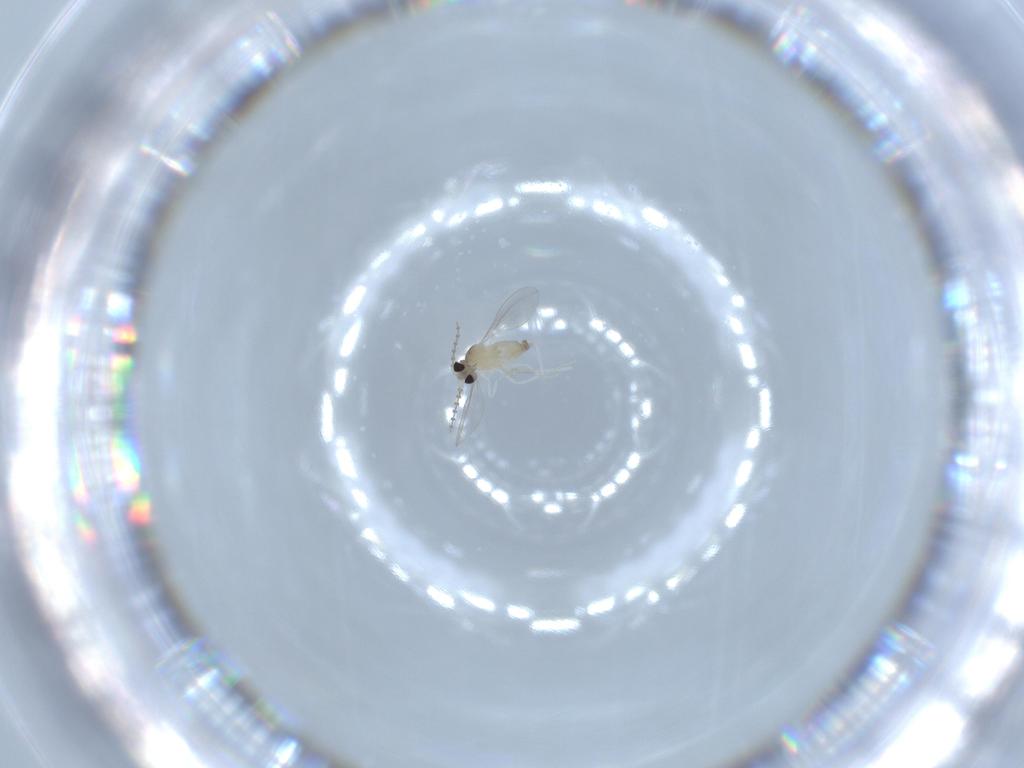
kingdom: Animalia
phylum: Arthropoda
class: Insecta
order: Diptera
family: Cecidomyiidae
